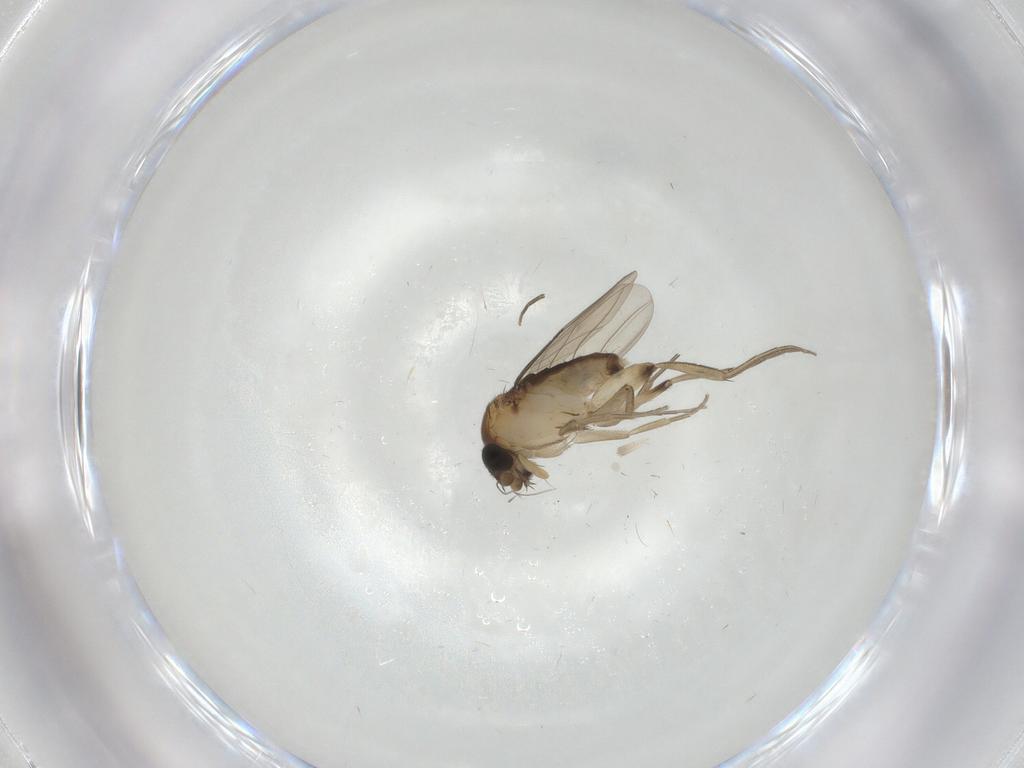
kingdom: Animalia
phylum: Arthropoda
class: Insecta
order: Diptera
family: Phoridae
